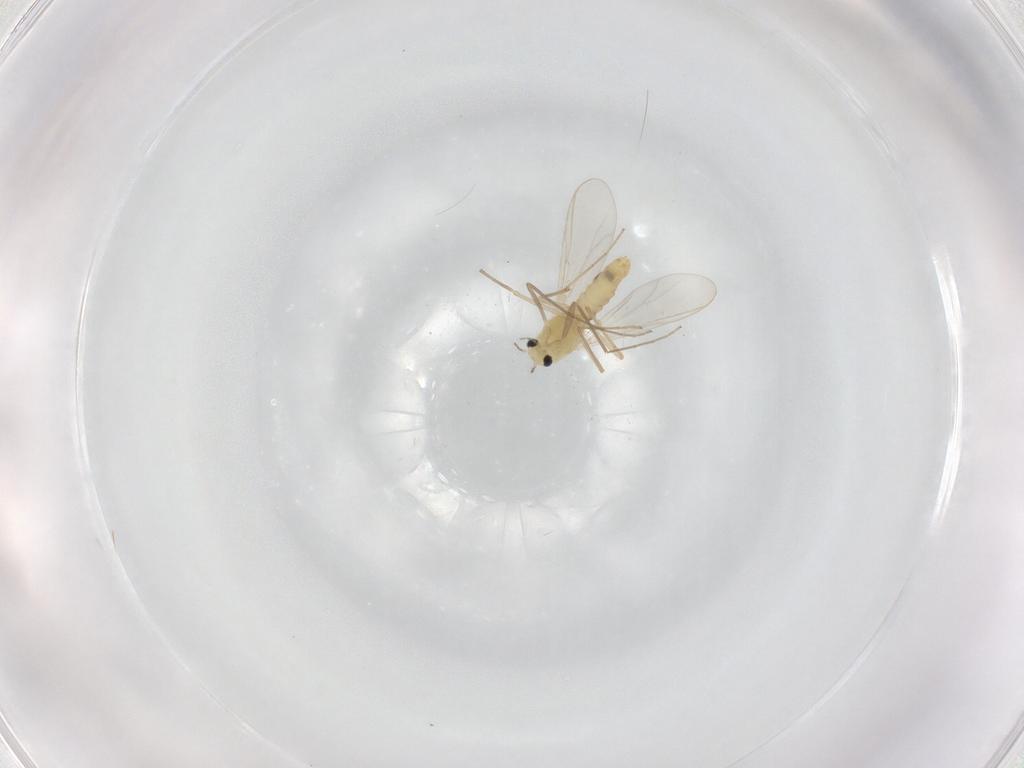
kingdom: Animalia
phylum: Arthropoda
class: Insecta
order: Diptera
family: Chironomidae
